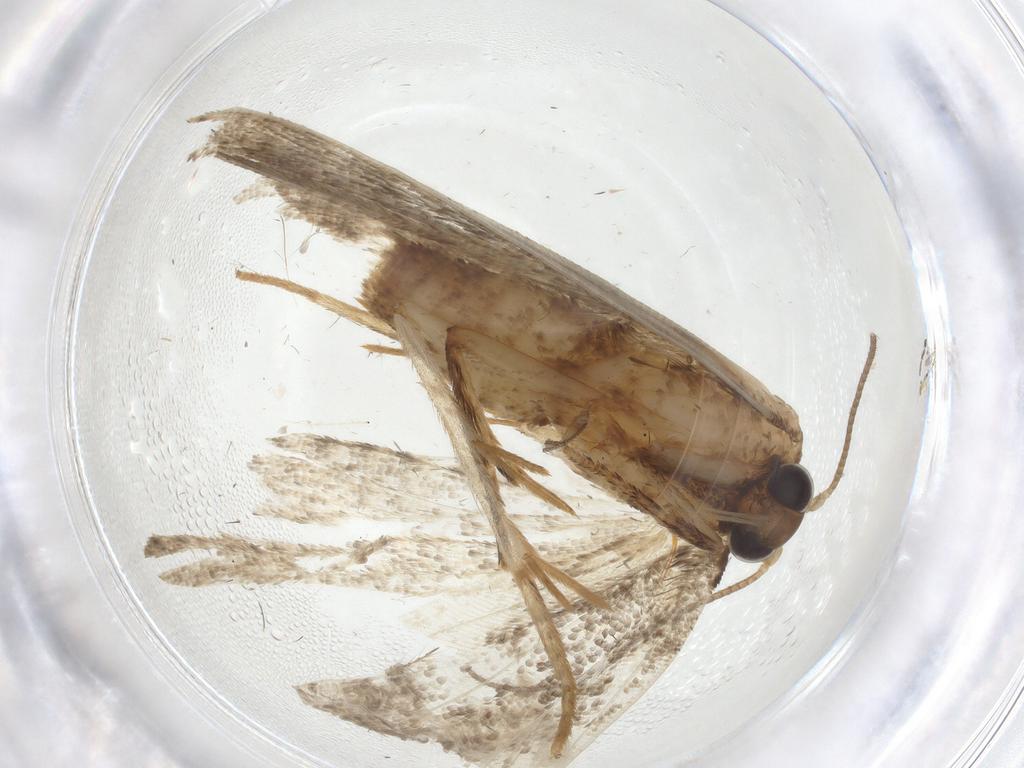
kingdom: Animalia
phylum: Arthropoda
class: Insecta
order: Lepidoptera
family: Tortricidae
